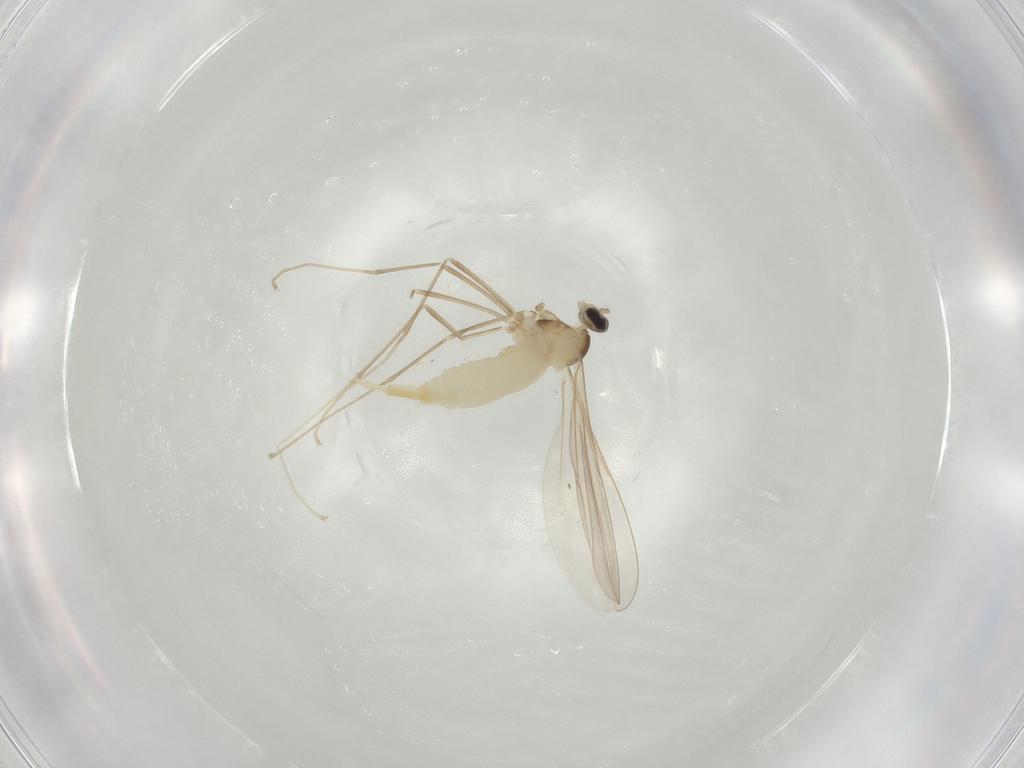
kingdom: Animalia
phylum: Arthropoda
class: Insecta
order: Diptera
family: Cecidomyiidae
